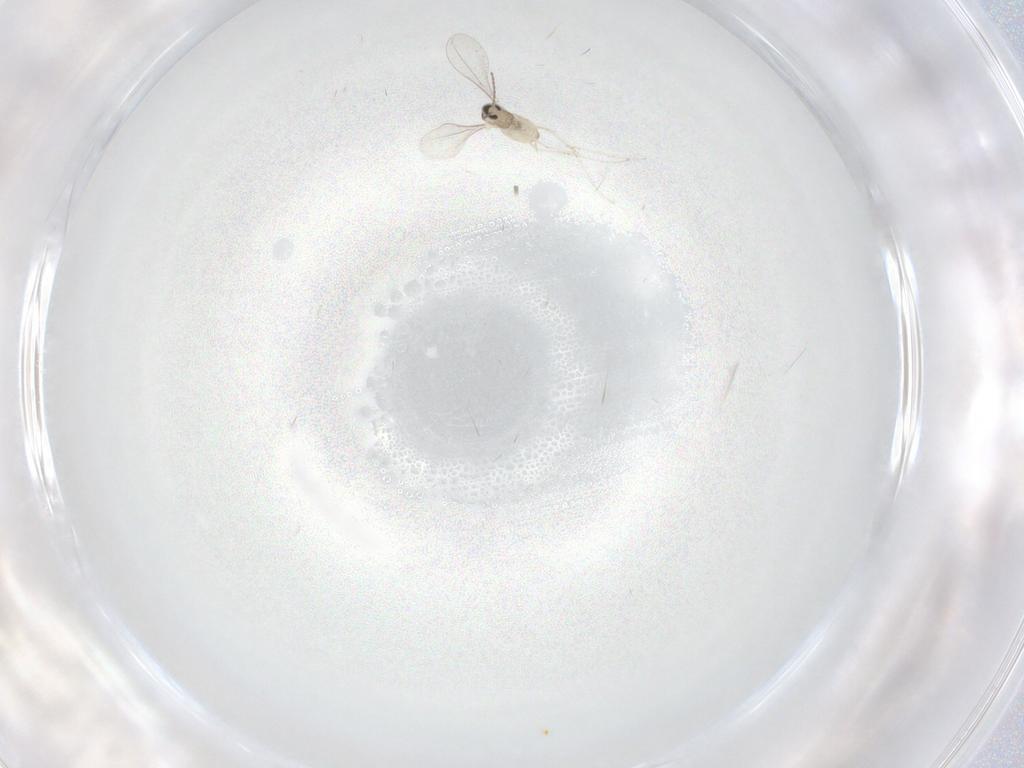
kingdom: Animalia
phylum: Arthropoda
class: Insecta
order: Diptera
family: Cecidomyiidae
